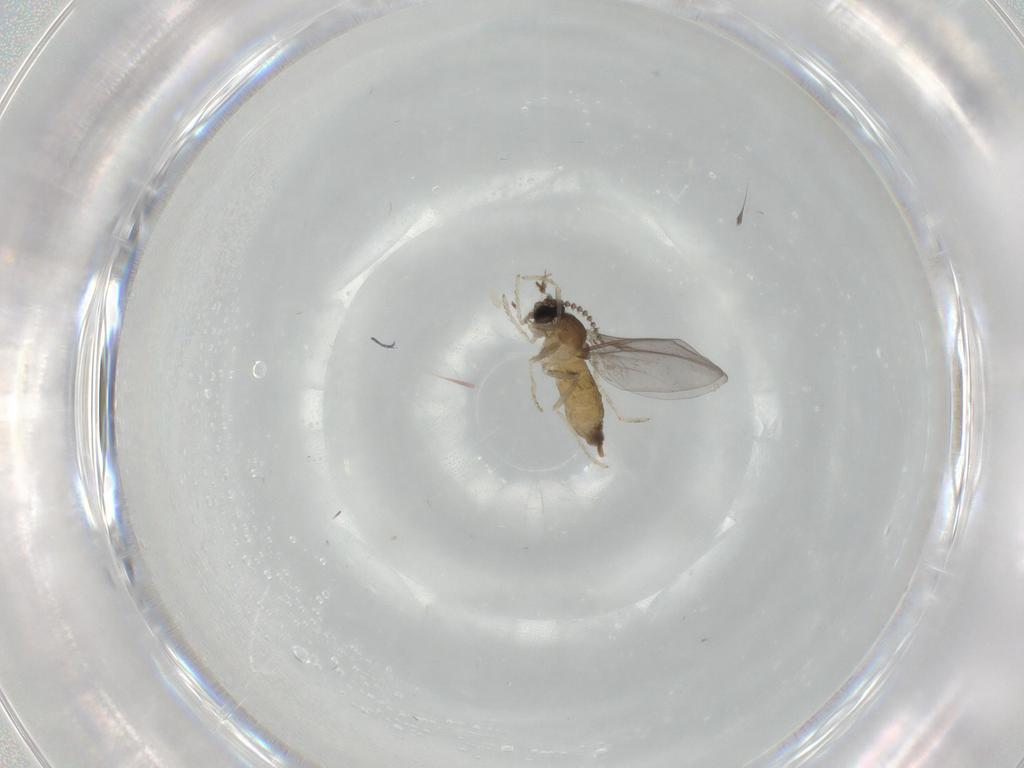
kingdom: Animalia
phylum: Arthropoda
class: Insecta
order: Diptera
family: Cecidomyiidae
